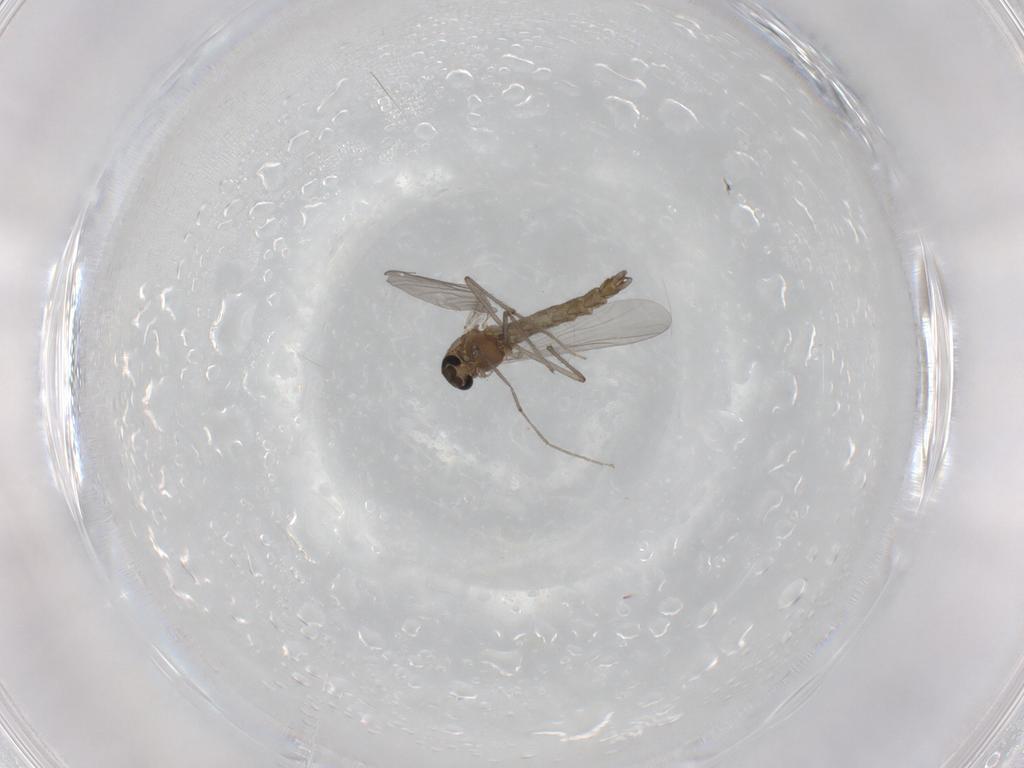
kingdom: Animalia
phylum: Arthropoda
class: Insecta
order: Diptera
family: Chironomidae
